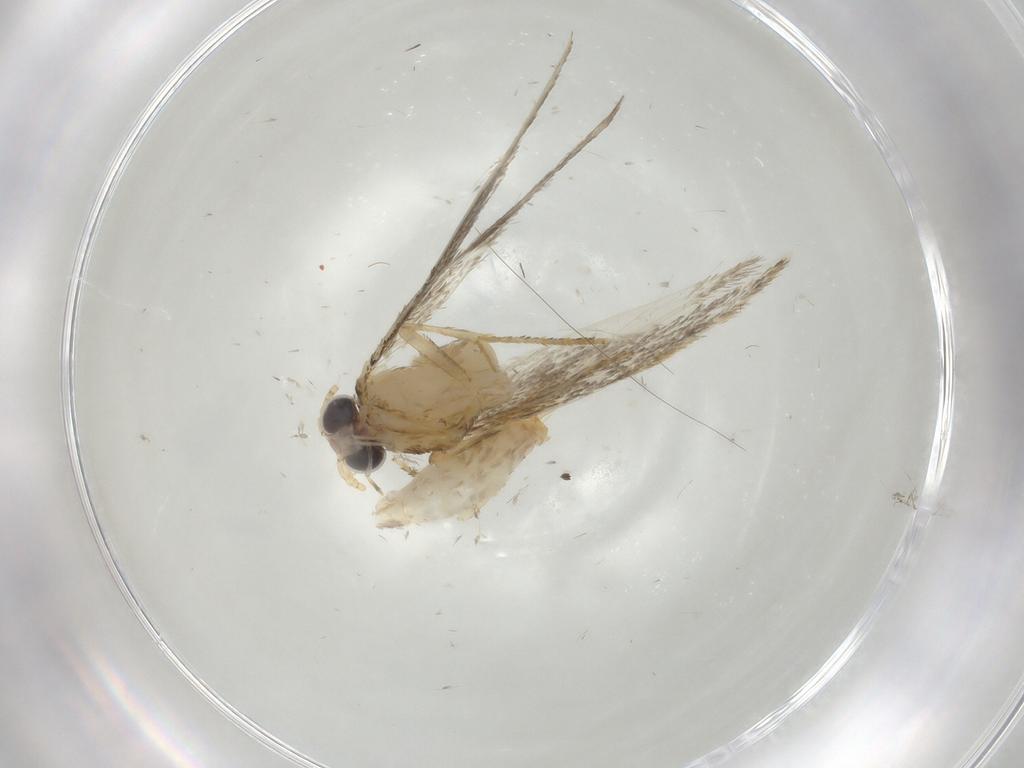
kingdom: Animalia
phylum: Arthropoda
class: Insecta
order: Lepidoptera
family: Tineidae
